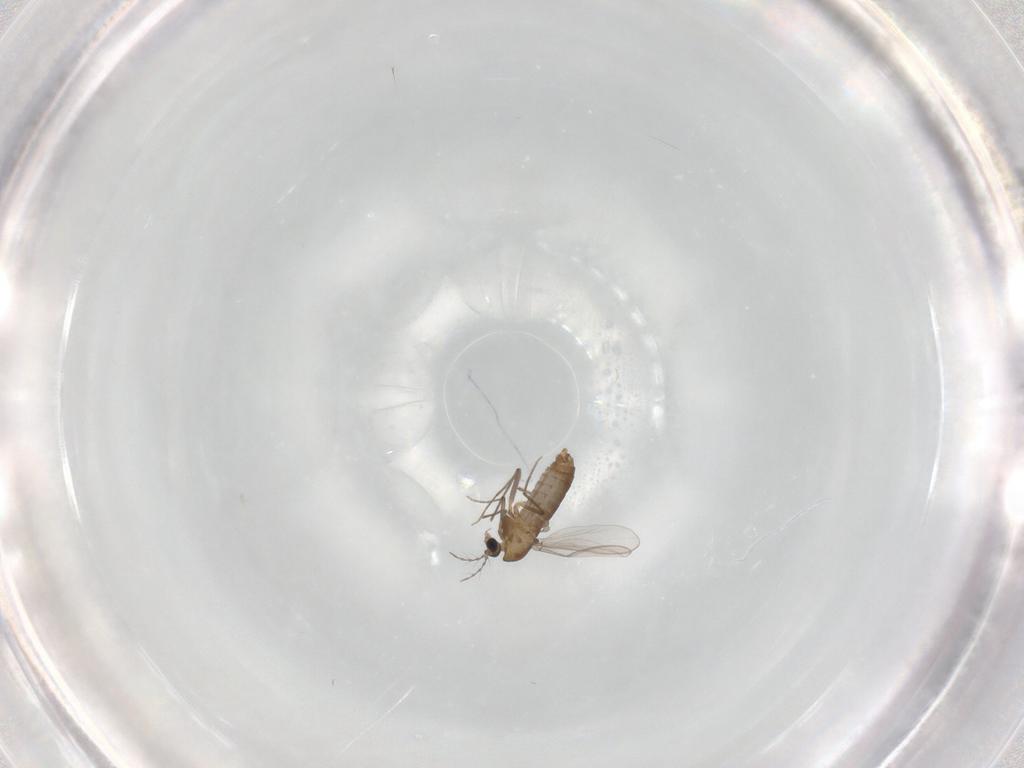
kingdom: Animalia
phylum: Arthropoda
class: Insecta
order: Diptera
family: Chironomidae
